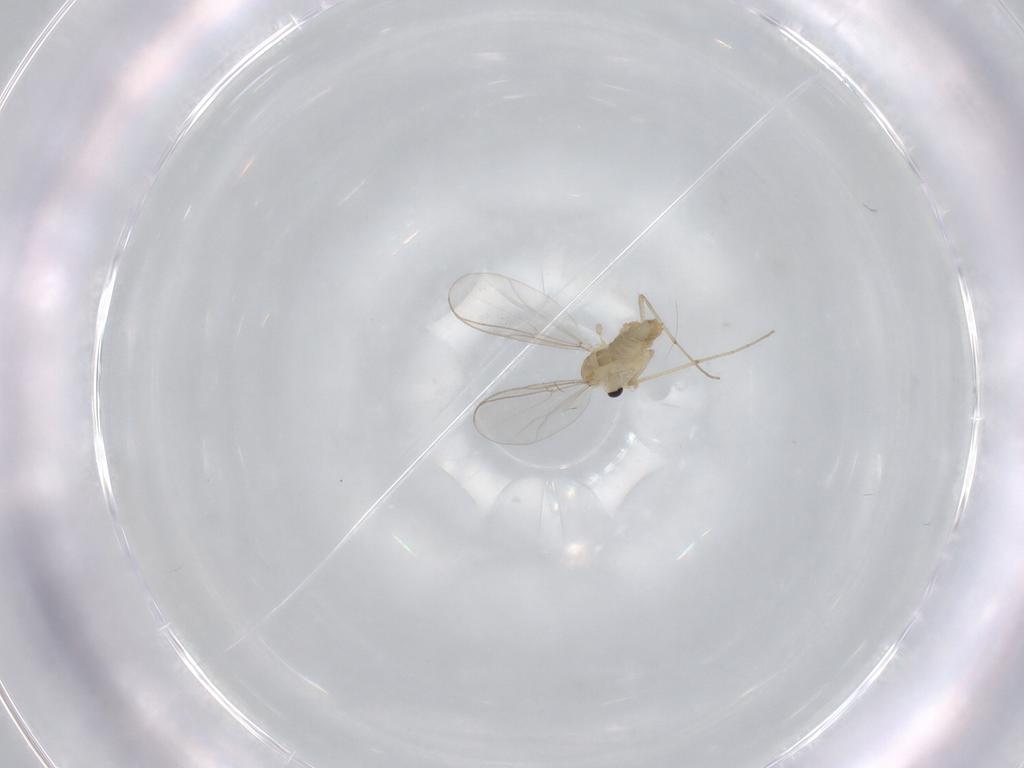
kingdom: Animalia
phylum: Arthropoda
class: Insecta
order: Diptera
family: Chironomidae
